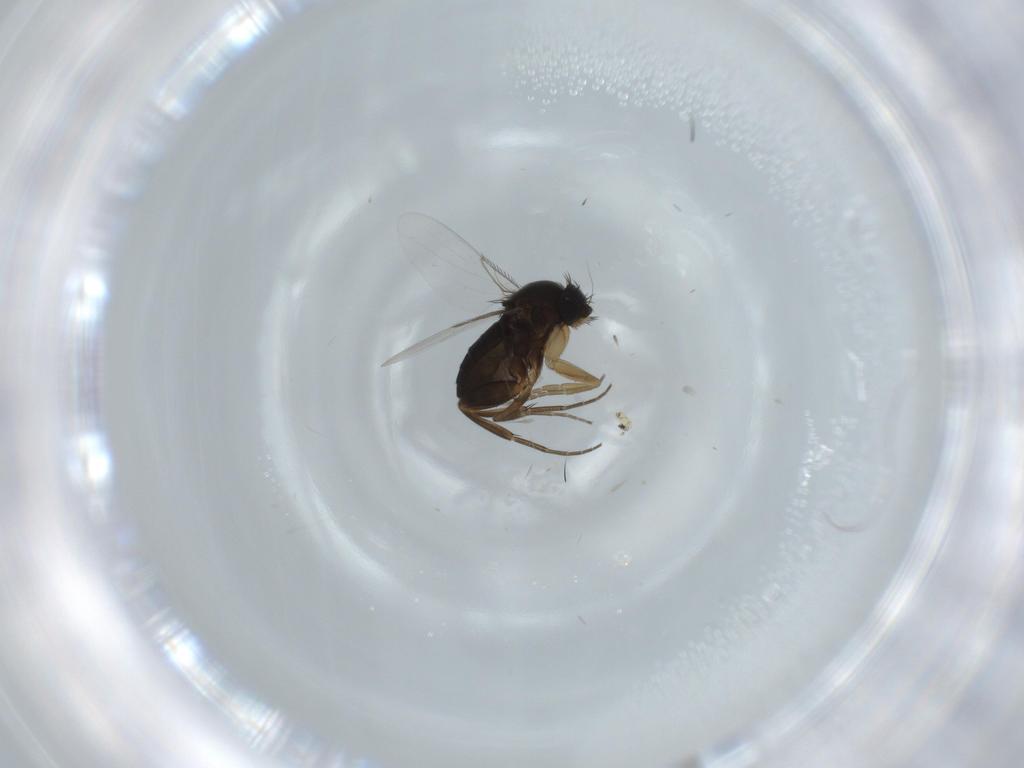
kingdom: Animalia
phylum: Arthropoda
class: Insecta
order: Diptera
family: Phoridae
